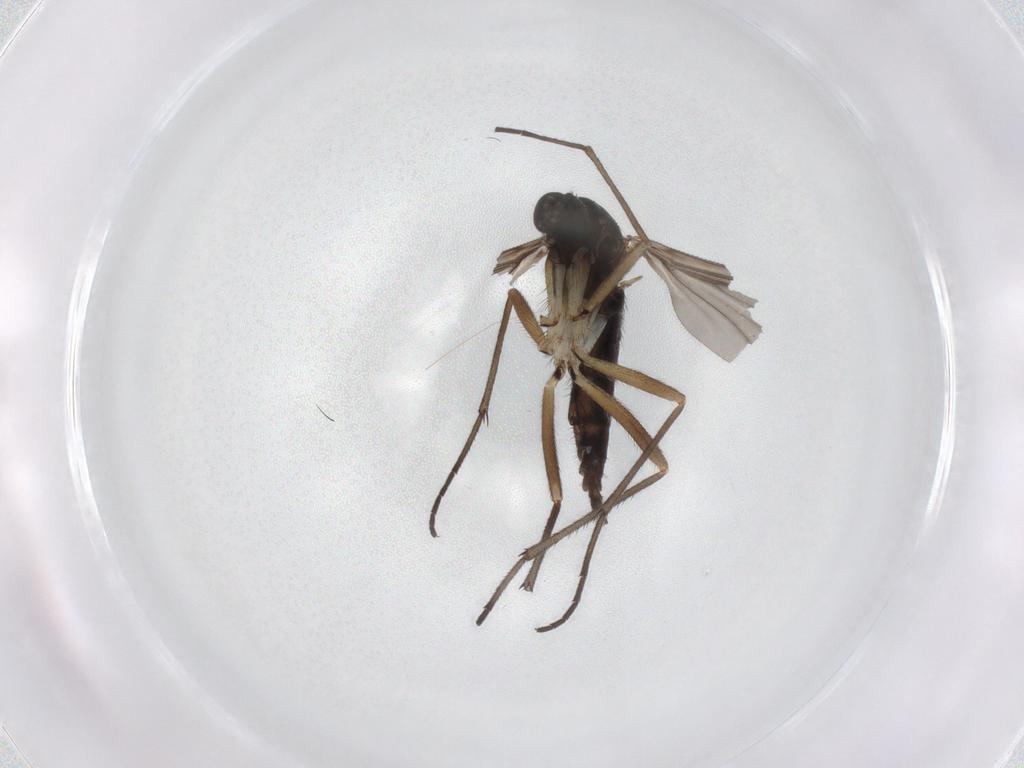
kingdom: Animalia
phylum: Arthropoda
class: Insecta
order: Diptera
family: Sciaridae
